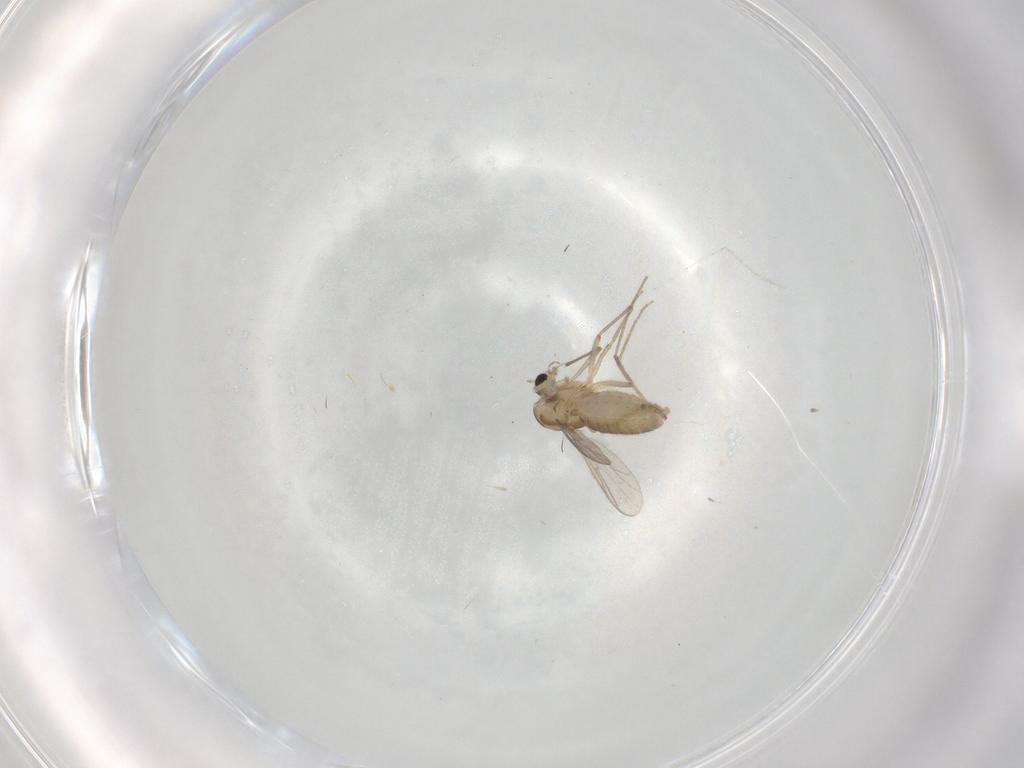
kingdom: Animalia
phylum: Arthropoda
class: Insecta
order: Diptera
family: Chironomidae
